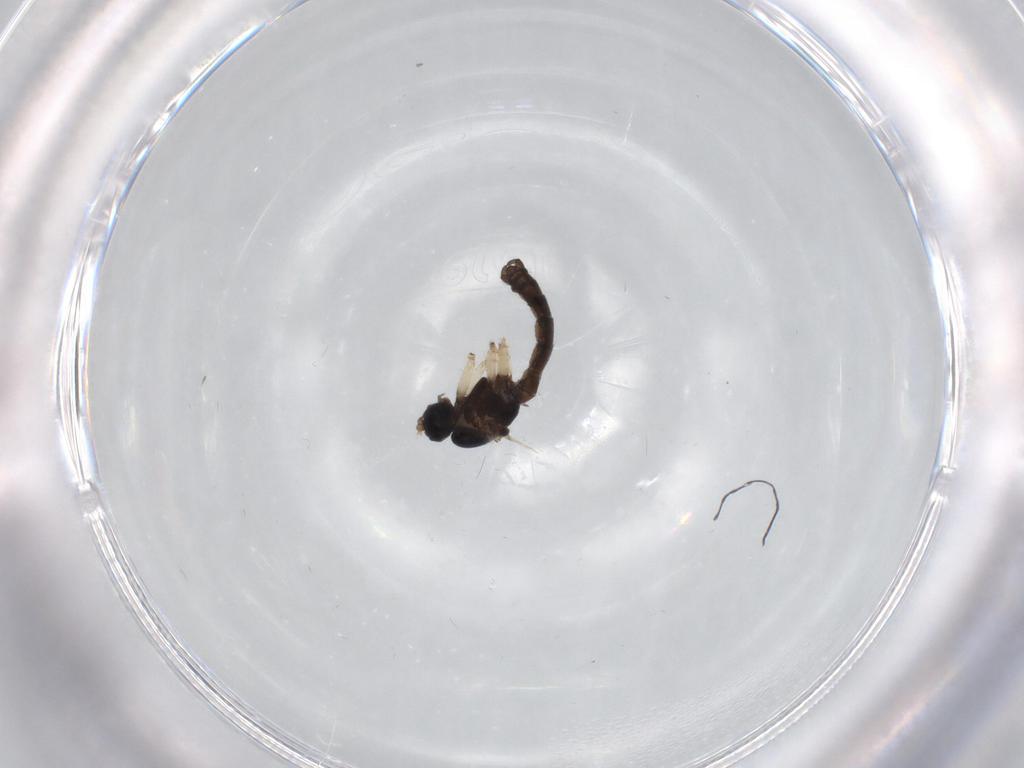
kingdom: Animalia
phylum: Arthropoda
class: Insecta
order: Diptera
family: Sciaridae
